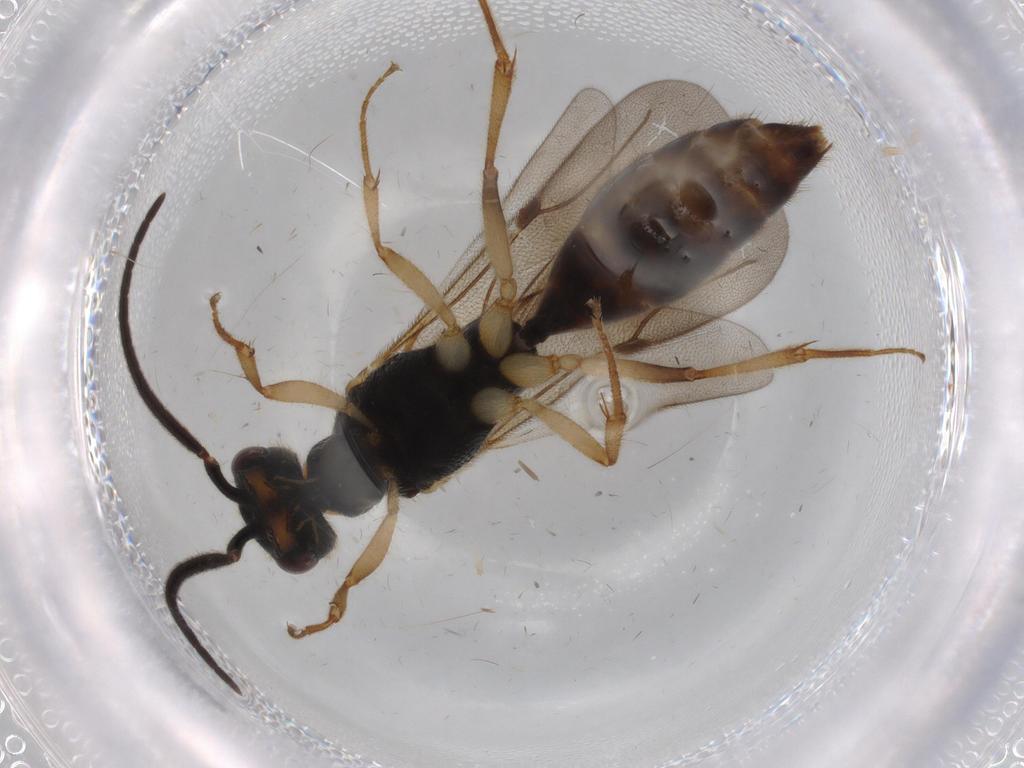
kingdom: Animalia
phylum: Arthropoda
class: Insecta
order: Hymenoptera
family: Bethylidae
